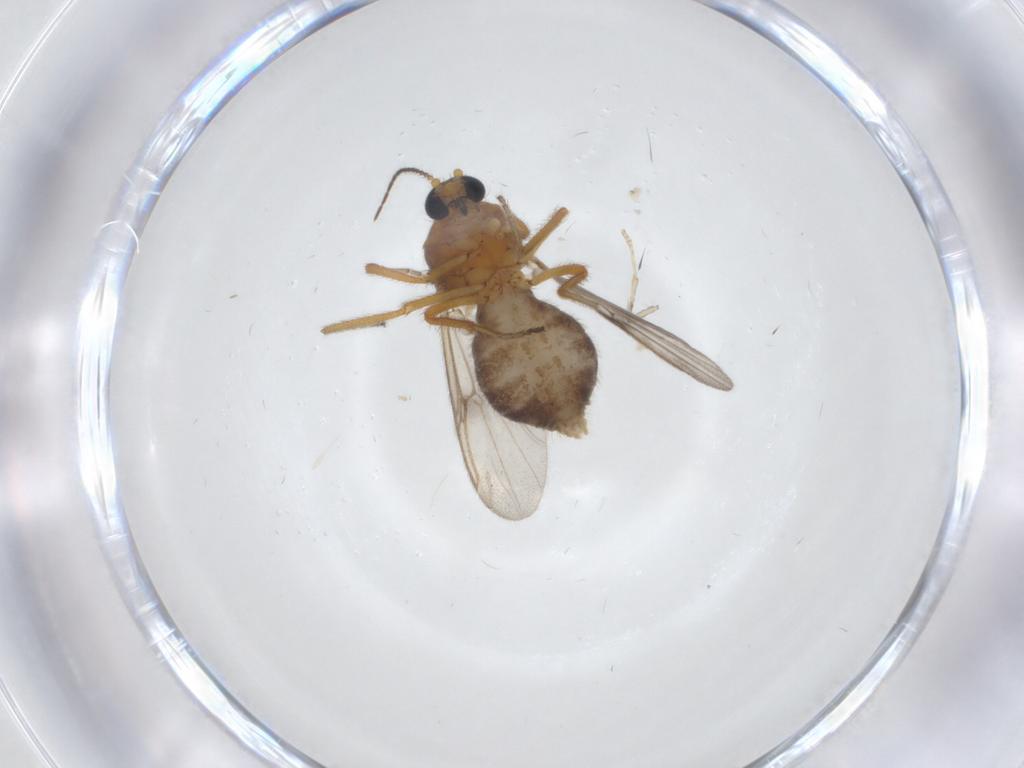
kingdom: Animalia
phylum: Arthropoda
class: Insecta
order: Diptera
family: Ceratopogonidae
